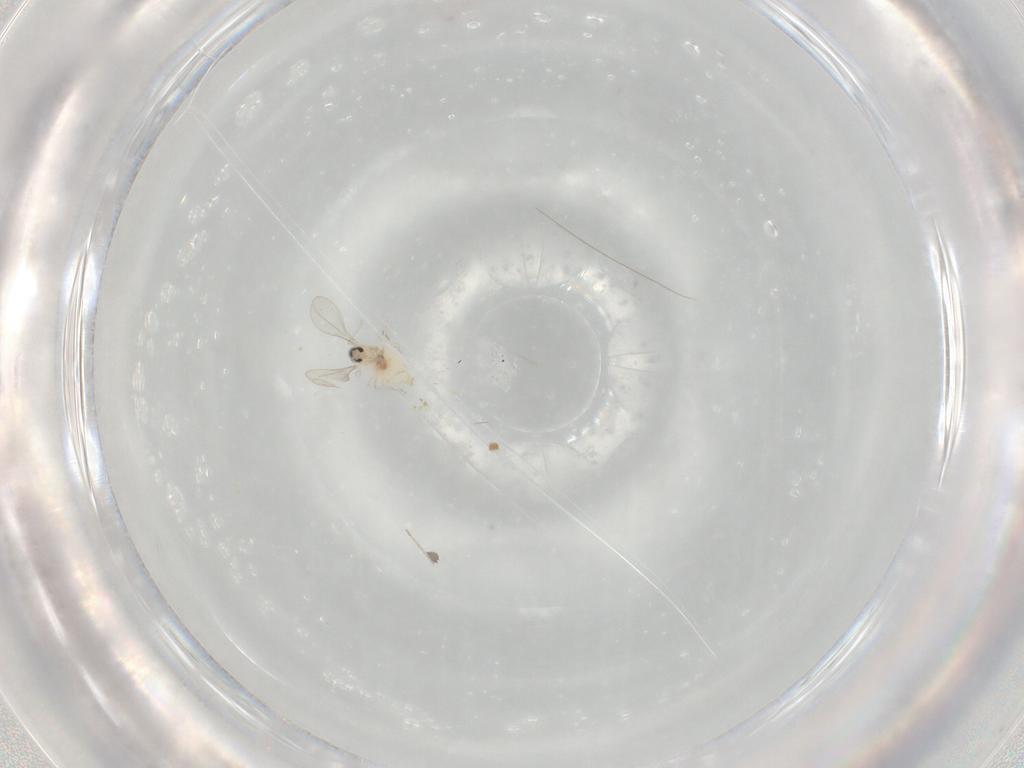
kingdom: Animalia
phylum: Arthropoda
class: Insecta
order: Diptera
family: Cecidomyiidae
